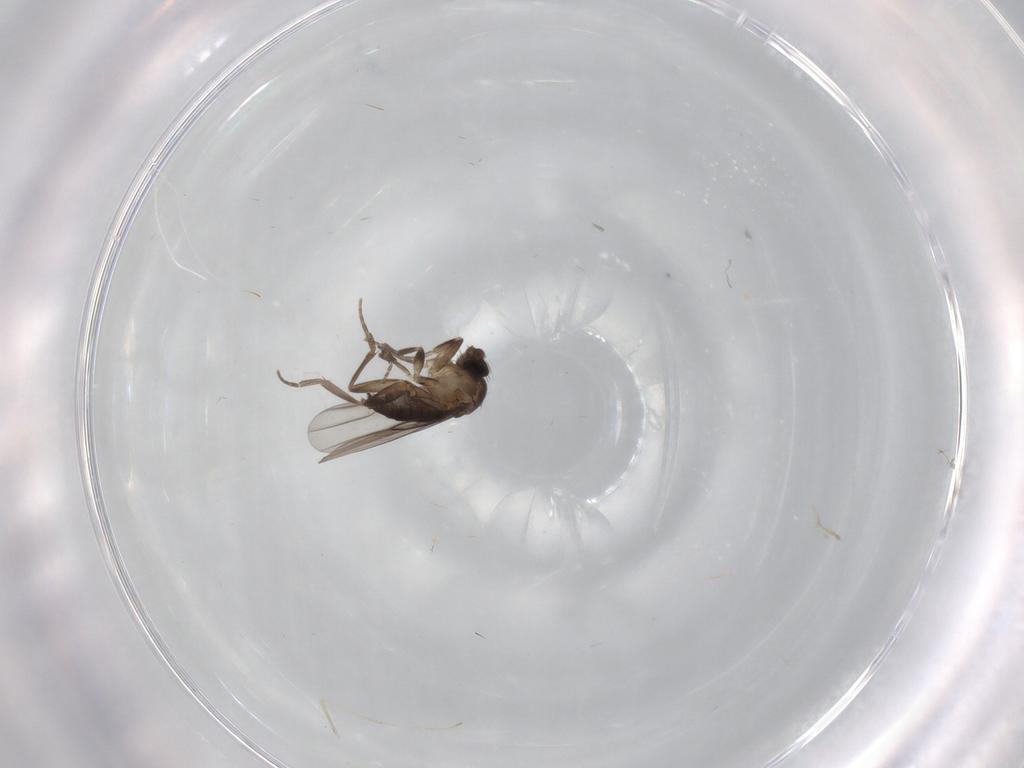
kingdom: Animalia
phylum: Arthropoda
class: Insecta
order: Diptera
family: Cecidomyiidae
